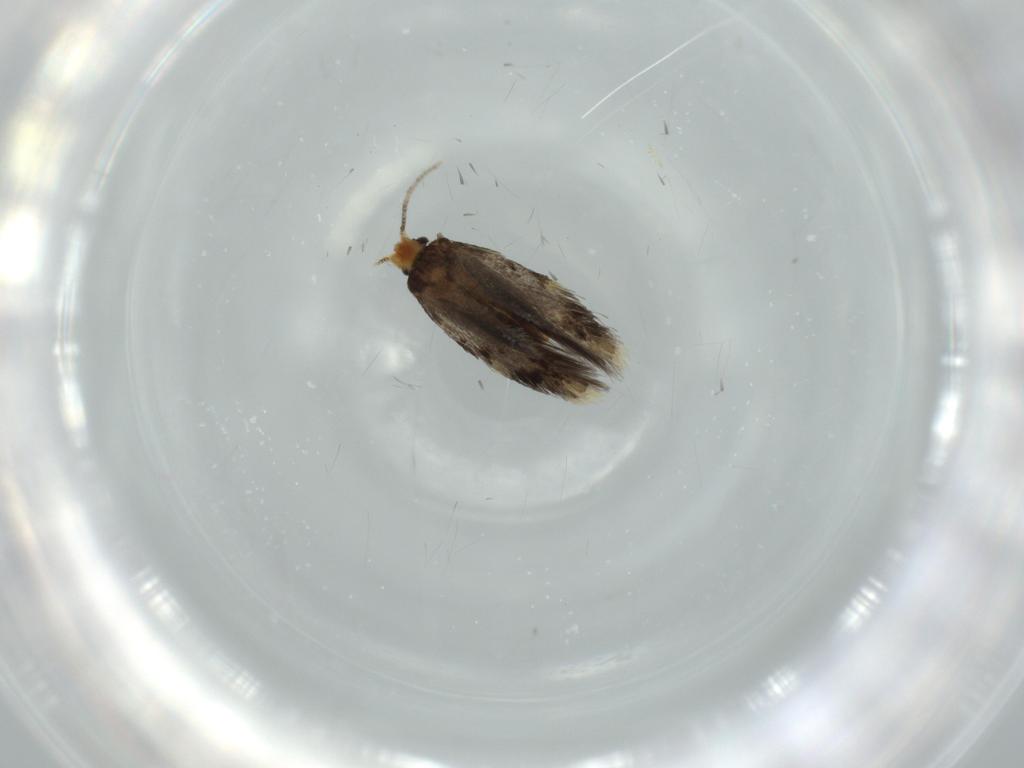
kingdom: Animalia
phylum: Arthropoda
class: Insecta
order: Lepidoptera
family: Nepticulidae
